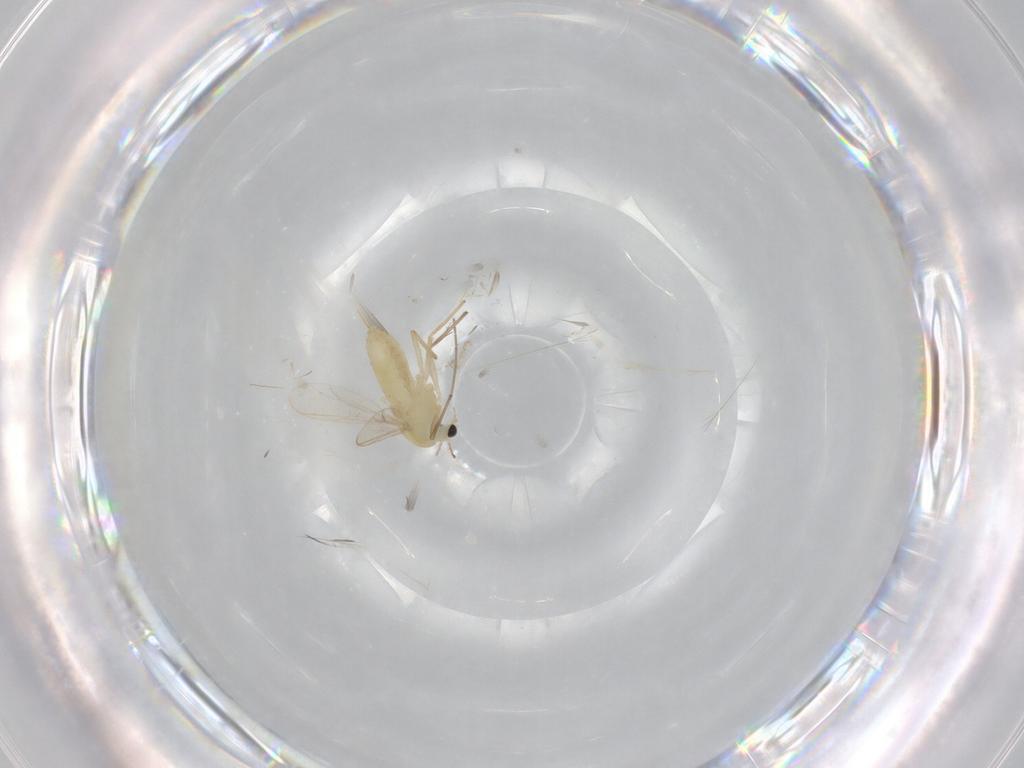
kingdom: Animalia
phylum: Arthropoda
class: Insecta
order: Diptera
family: Chironomidae
